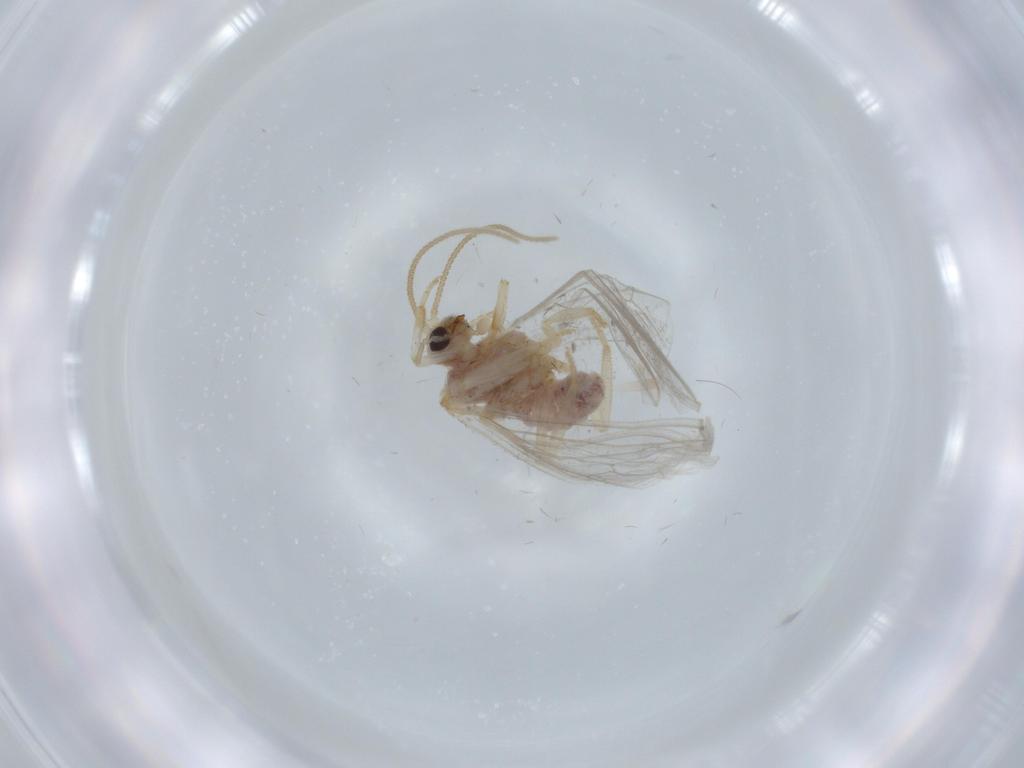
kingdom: Animalia
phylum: Arthropoda
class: Insecta
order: Neuroptera
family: Coniopterygidae
